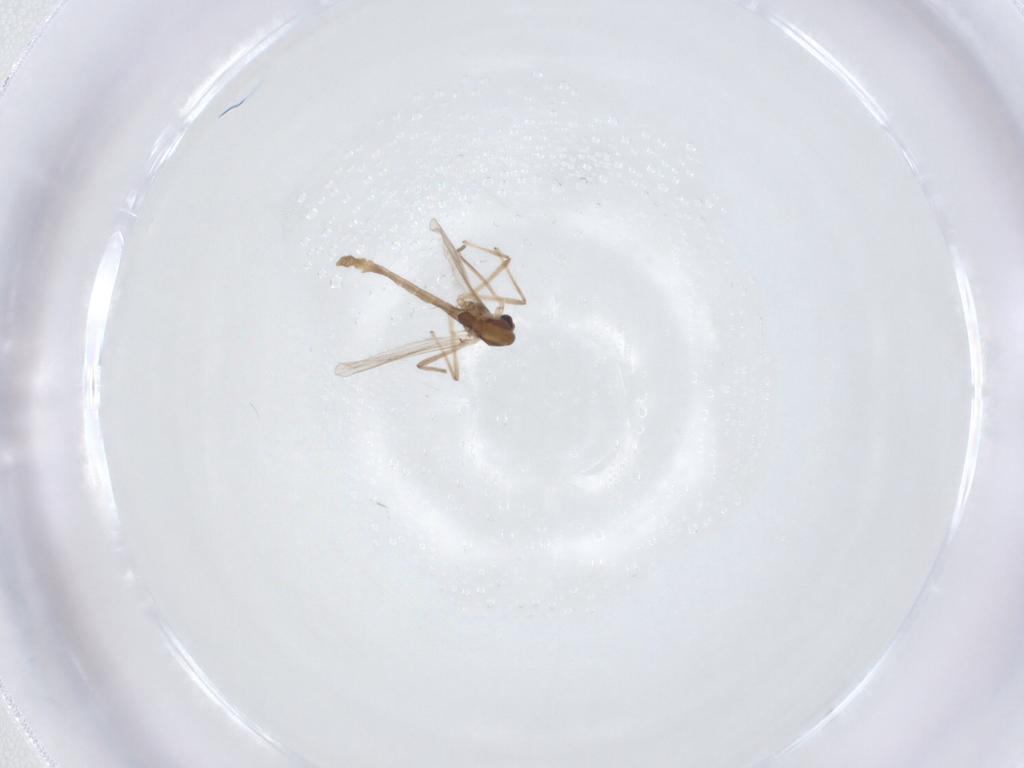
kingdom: Animalia
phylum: Arthropoda
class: Insecta
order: Diptera
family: Chironomidae
